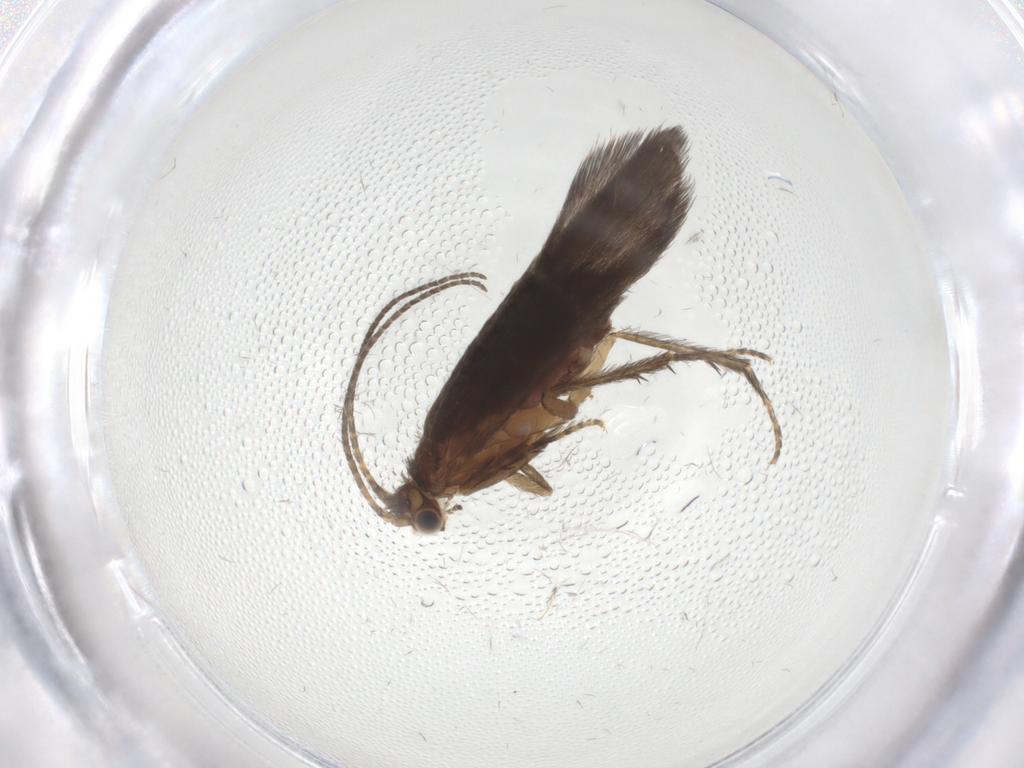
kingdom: Animalia
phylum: Arthropoda
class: Insecta
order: Trichoptera
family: Glossosomatidae
